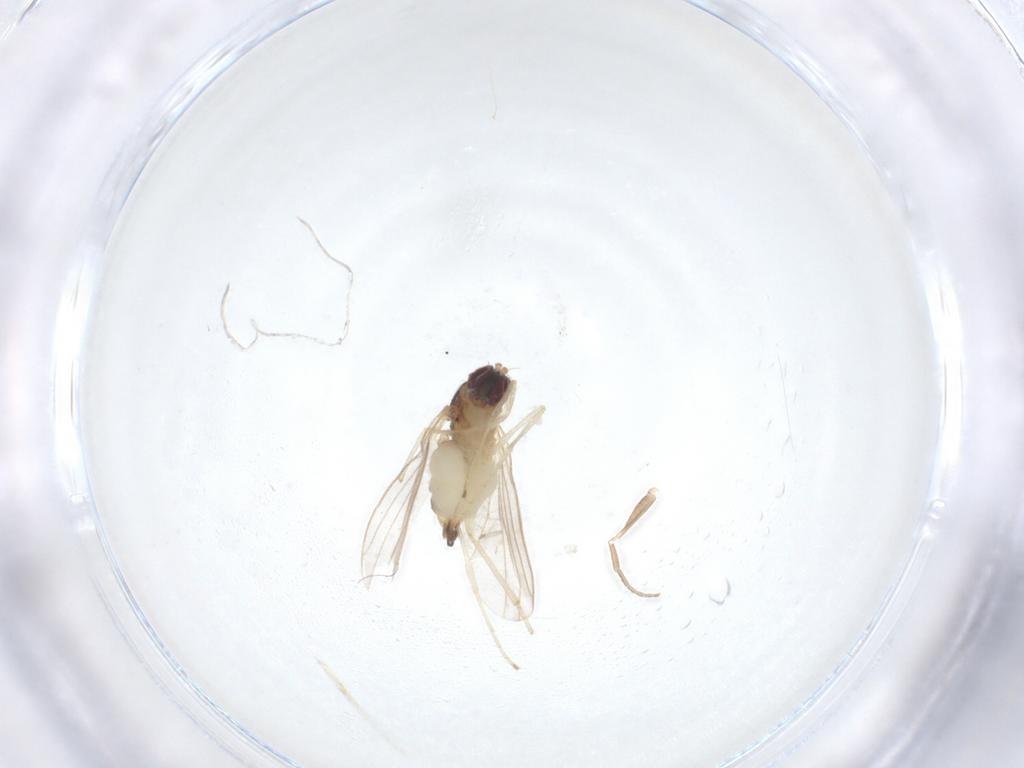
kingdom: Animalia
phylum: Arthropoda
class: Insecta
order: Diptera
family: Dolichopodidae
